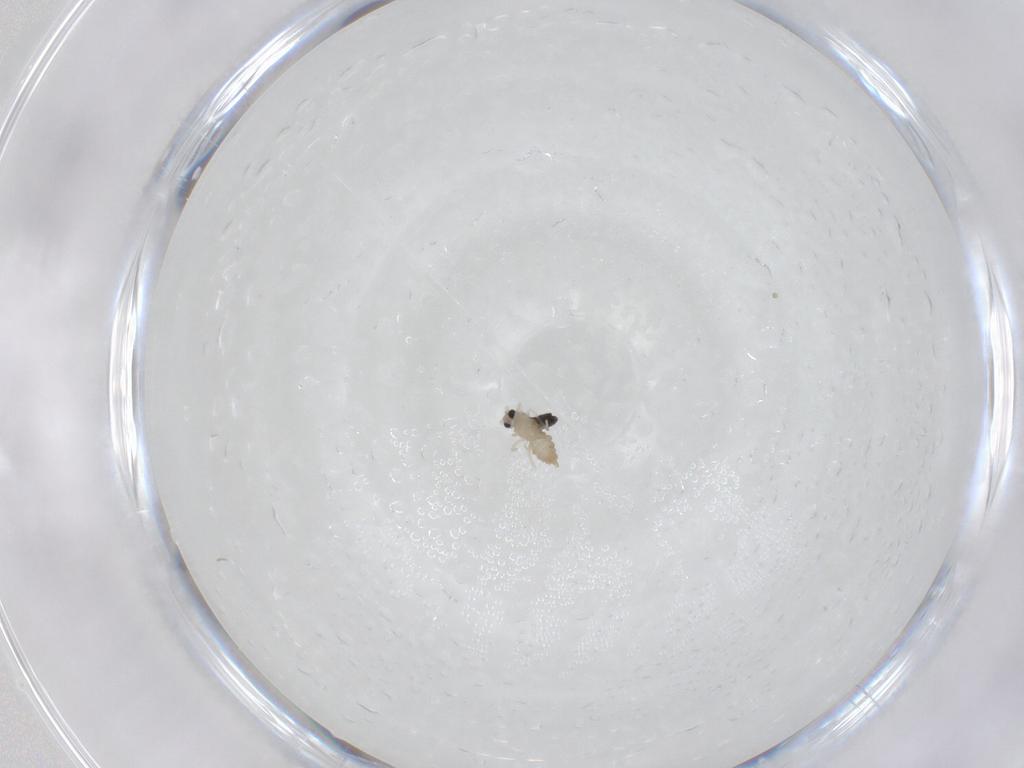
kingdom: Animalia
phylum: Arthropoda
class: Insecta
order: Diptera
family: Cecidomyiidae
